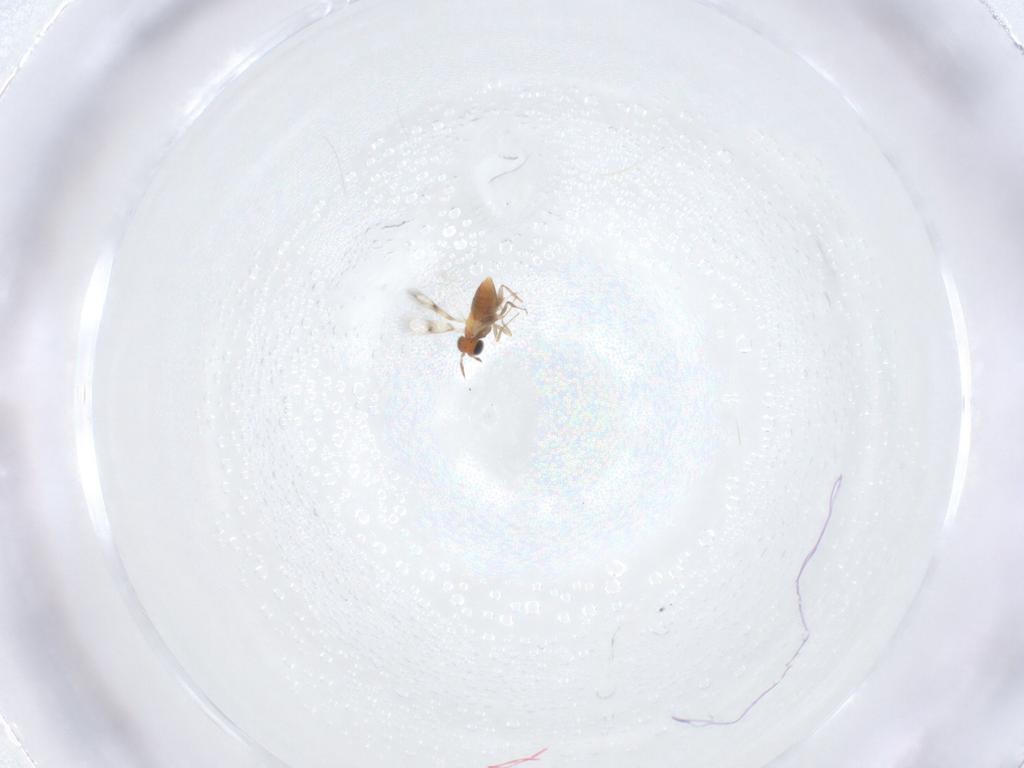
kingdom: Animalia
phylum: Arthropoda
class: Insecta
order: Hymenoptera
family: Trichogrammatidae
